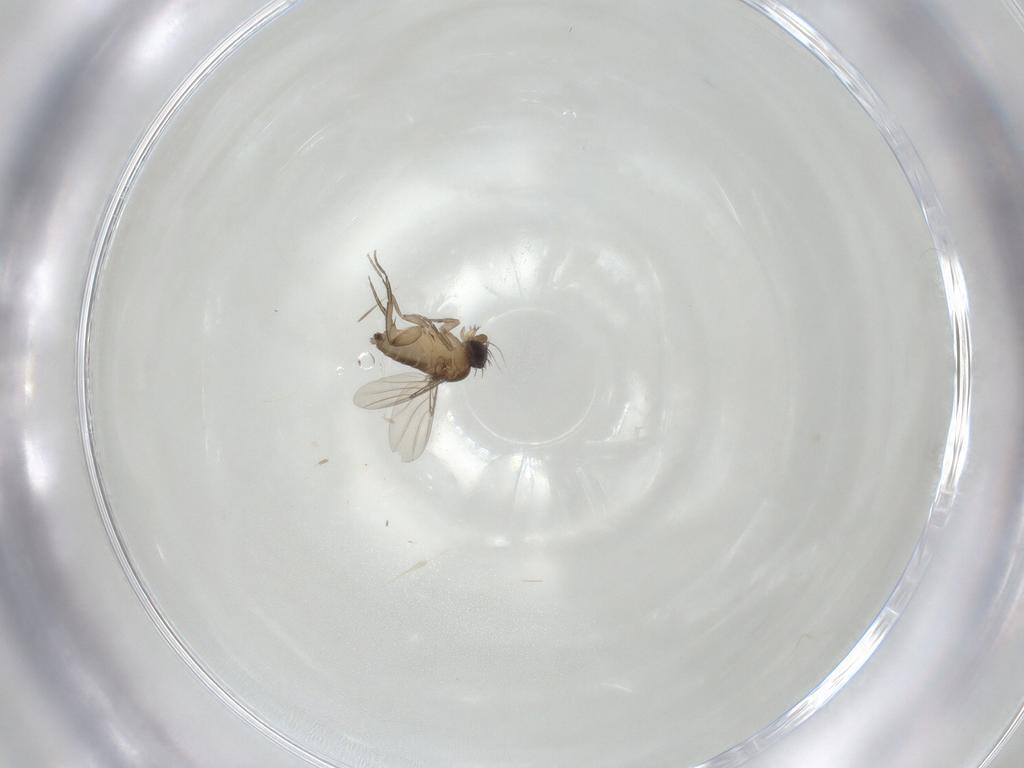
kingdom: Animalia
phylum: Arthropoda
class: Insecta
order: Diptera
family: Phoridae
